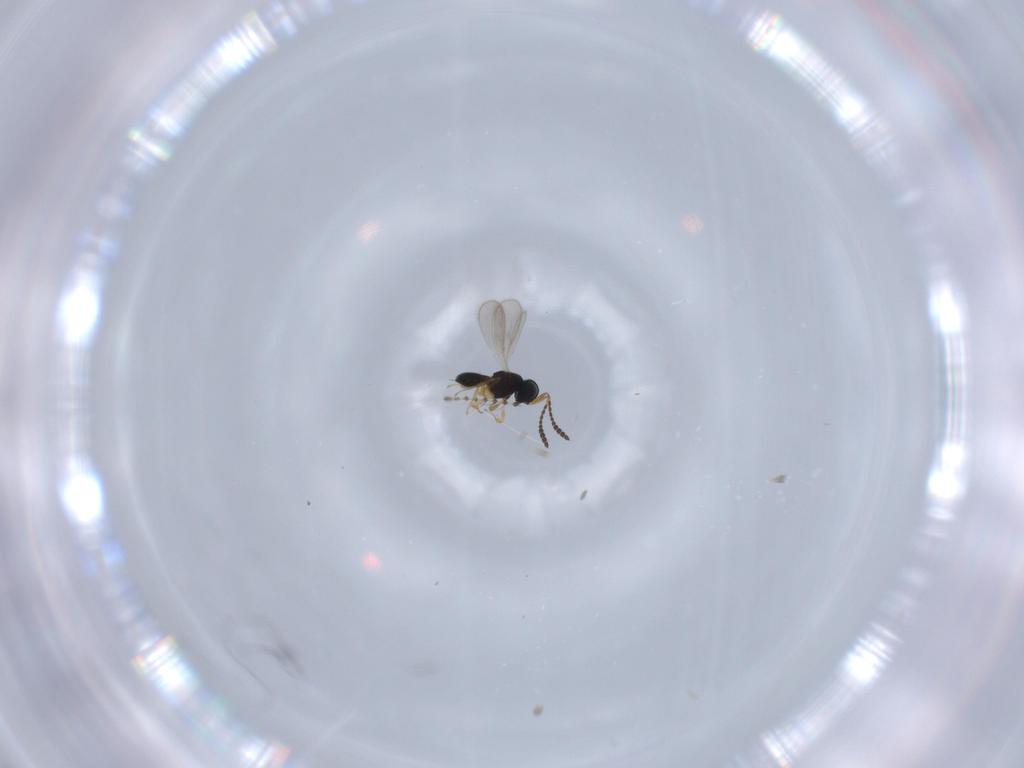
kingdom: Animalia
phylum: Arthropoda
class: Insecta
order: Hymenoptera
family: Scelionidae
